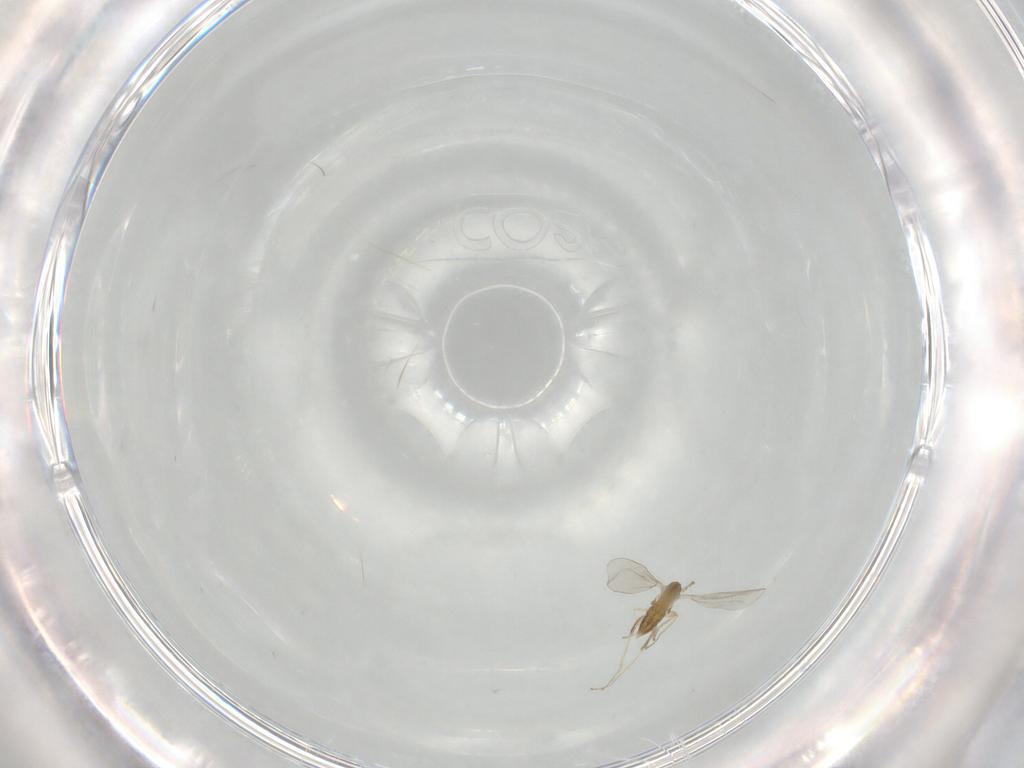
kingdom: Animalia
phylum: Arthropoda
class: Insecta
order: Diptera
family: Cecidomyiidae
